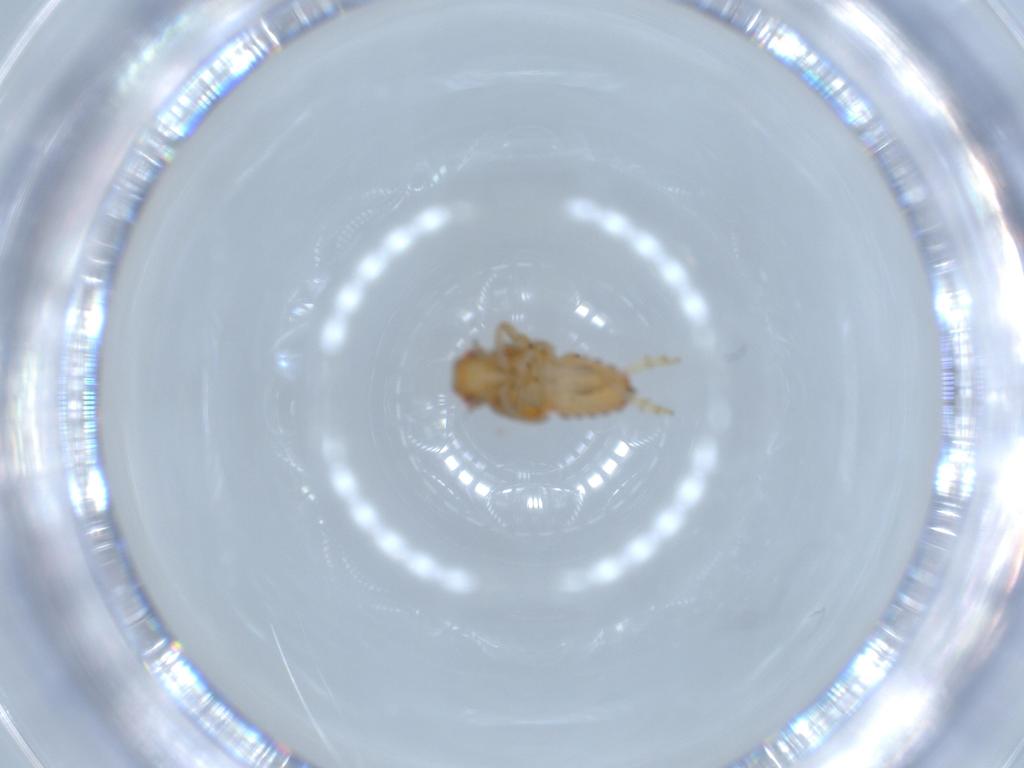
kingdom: Animalia
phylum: Arthropoda
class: Insecta
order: Hemiptera
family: Issidae
